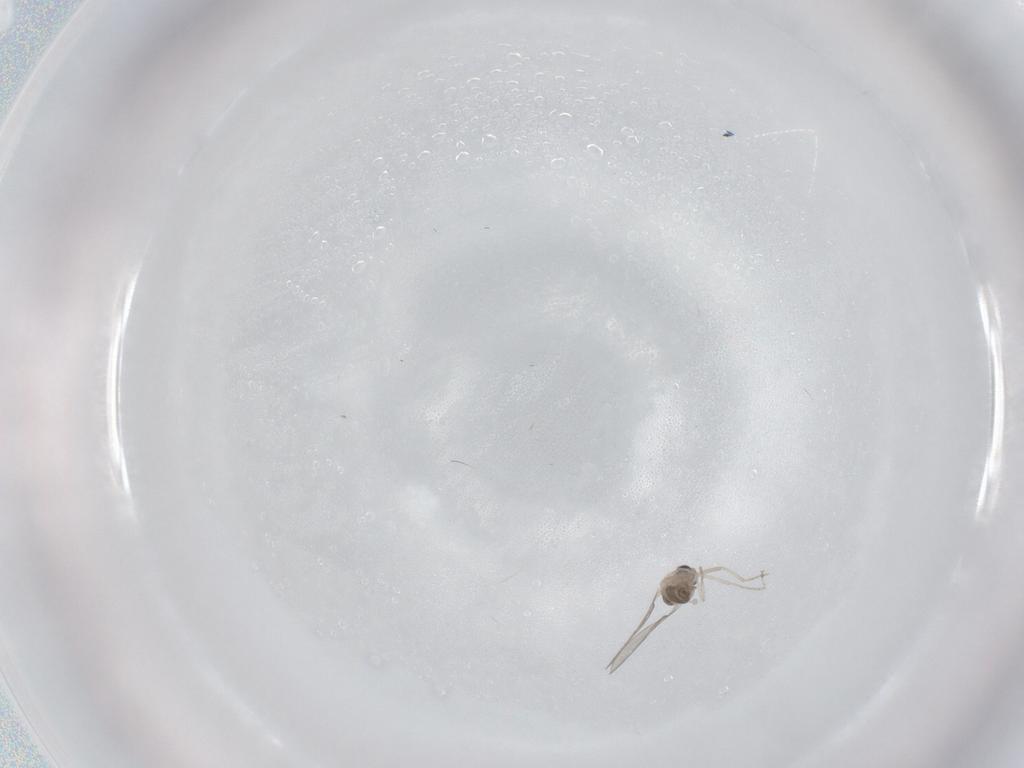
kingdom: Animalia
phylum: Arthropoda
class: Insecta
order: Diptera
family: Cecidomyiidae
